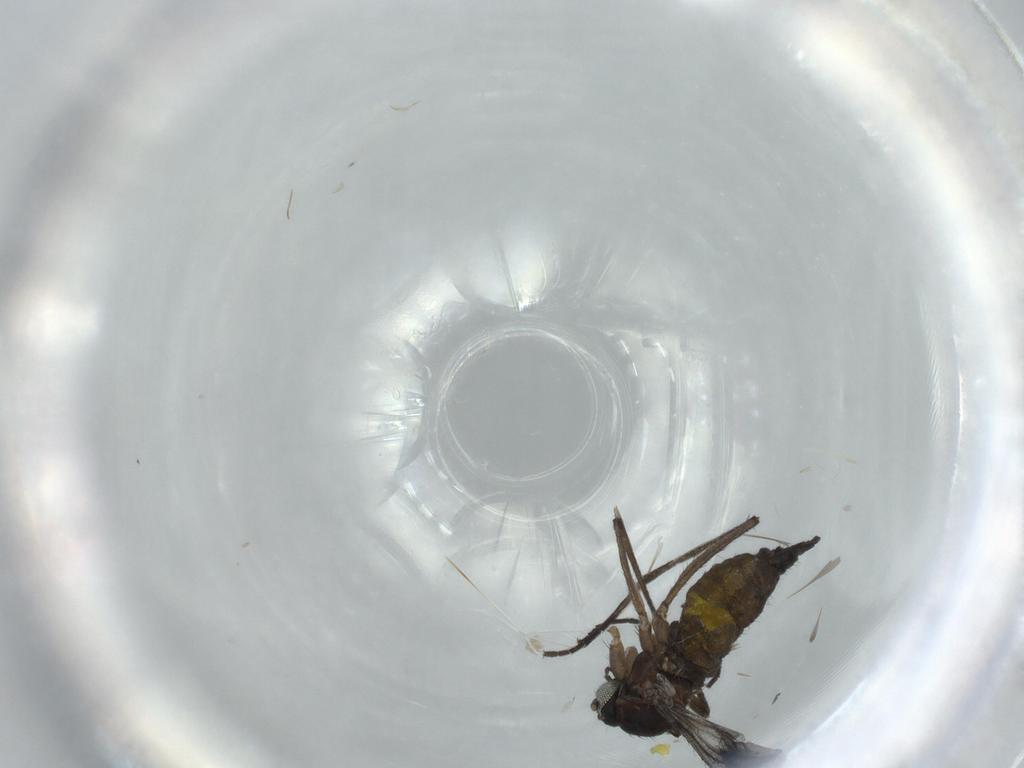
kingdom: Animalia
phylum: Arthropoda
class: Insecta
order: Diptera
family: Sciaridae
